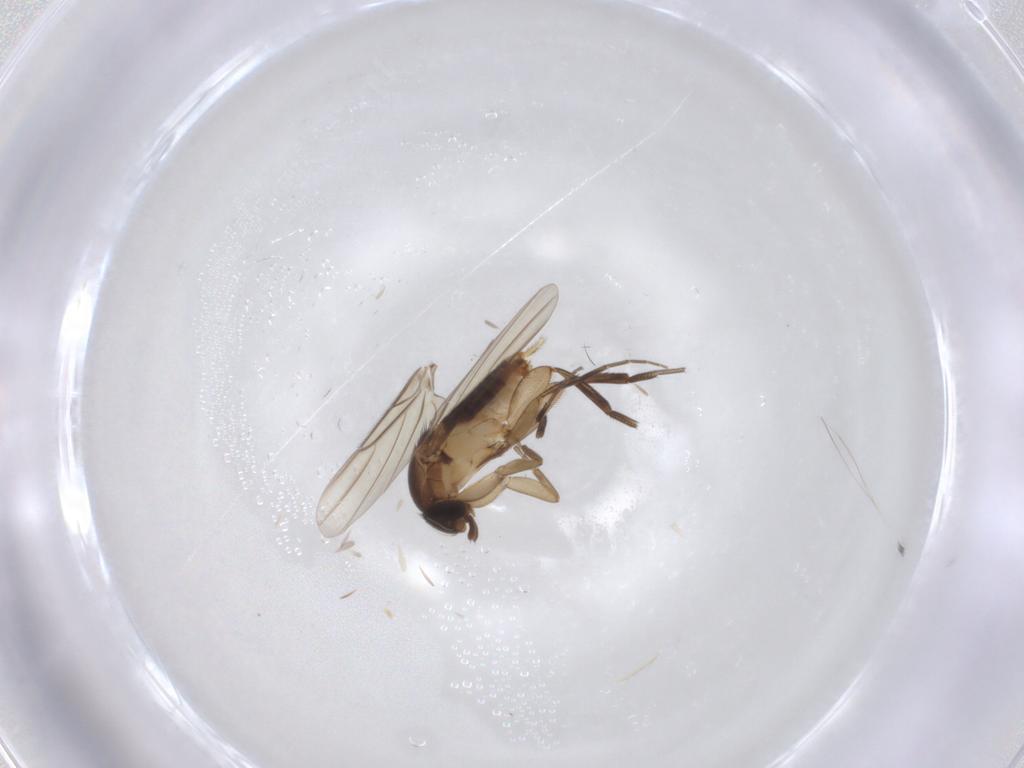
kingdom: Animalia
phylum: Arthropoda
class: Insecta
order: Diptera
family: Phoridae
